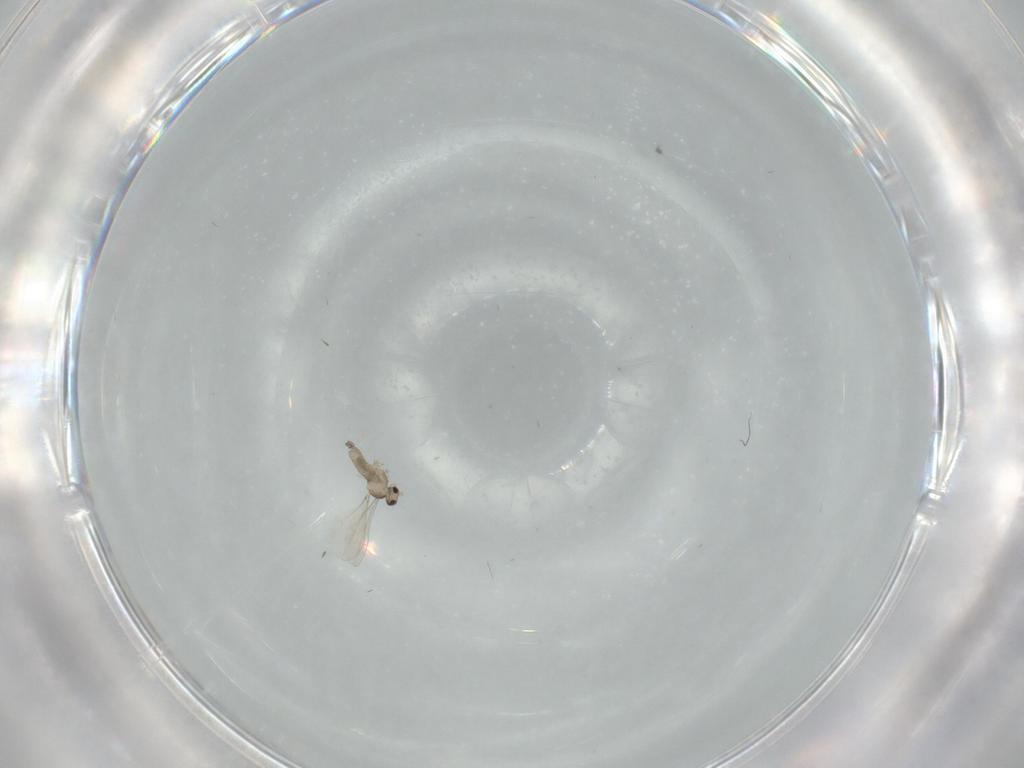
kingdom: Animalia
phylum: Arthropoda
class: Insecta
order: Diptera
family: Cecidomyiidae
